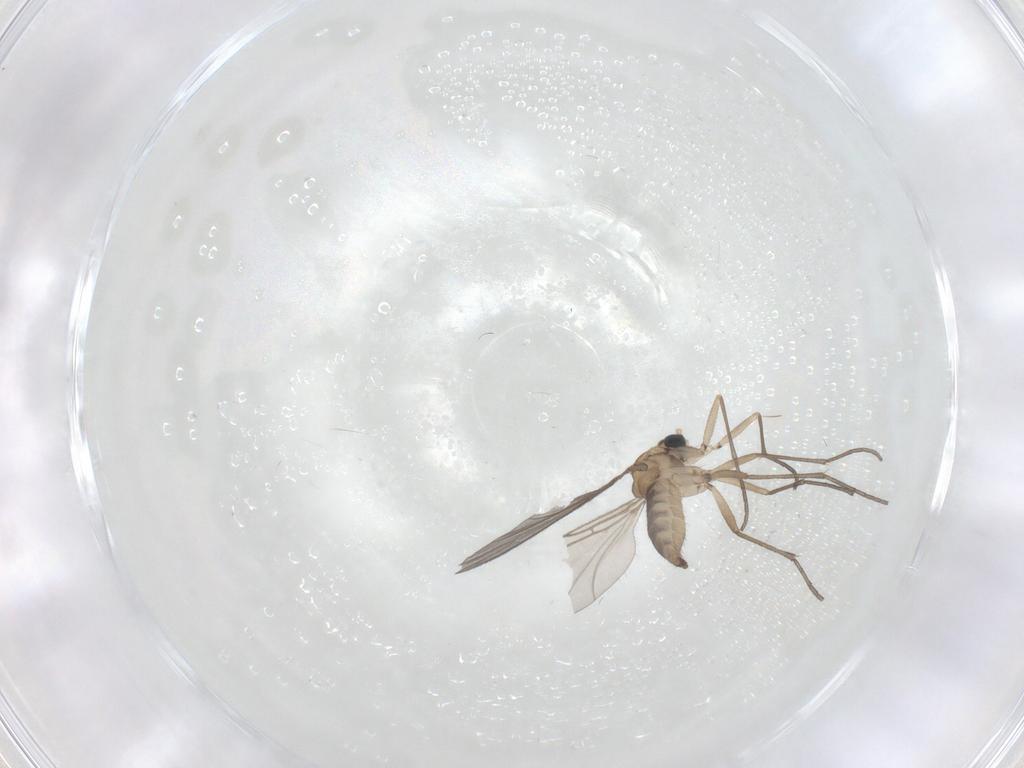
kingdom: Animalia
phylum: Arthropoda
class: Insecta
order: Diptera
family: Sciaridae
